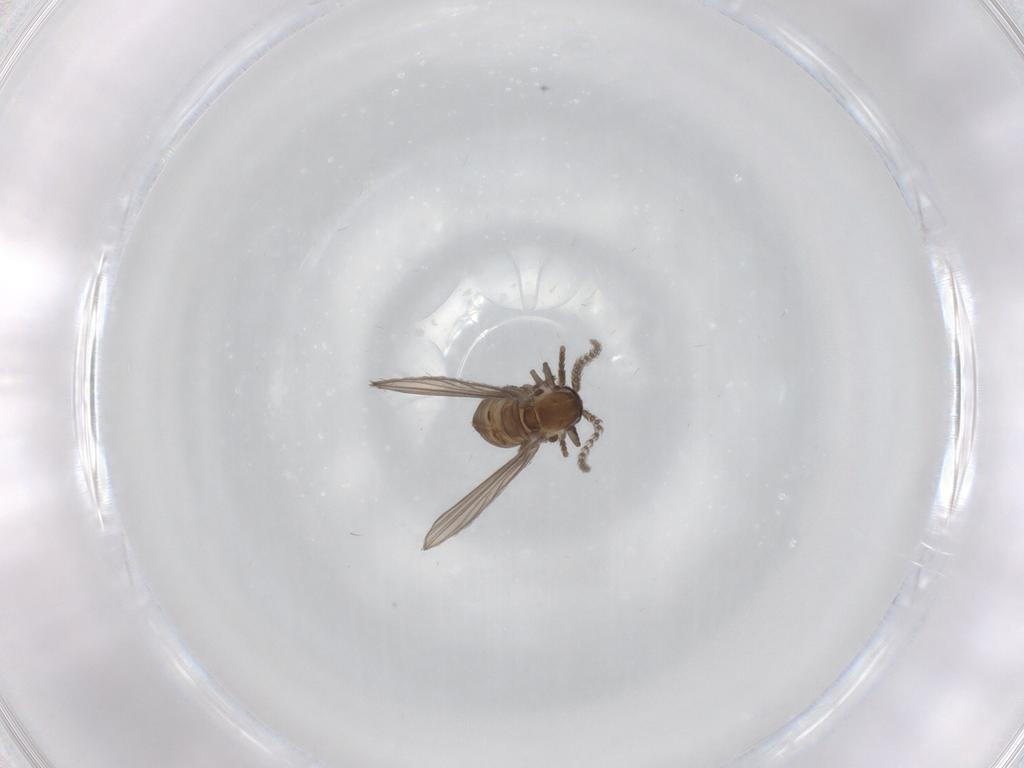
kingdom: Animalia
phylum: Arthropoda
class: Insecta
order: Diptera
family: Psychodidae
